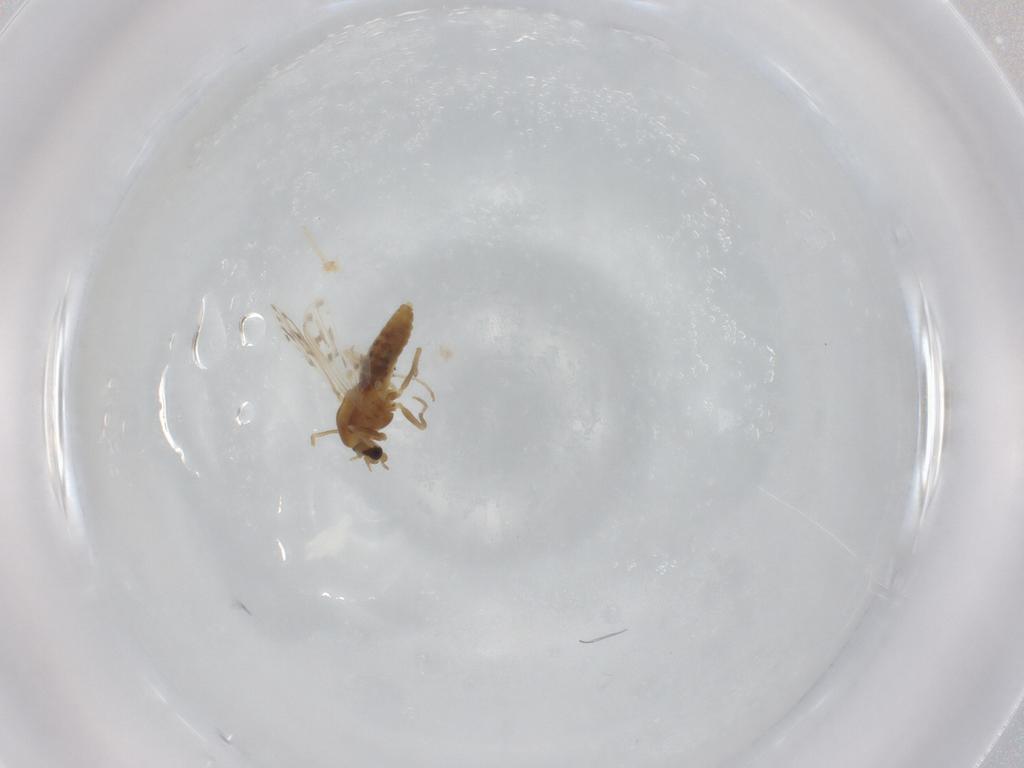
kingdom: Animalia
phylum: Arthropoda
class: Insecta
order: Diptera
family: Chironomidae
